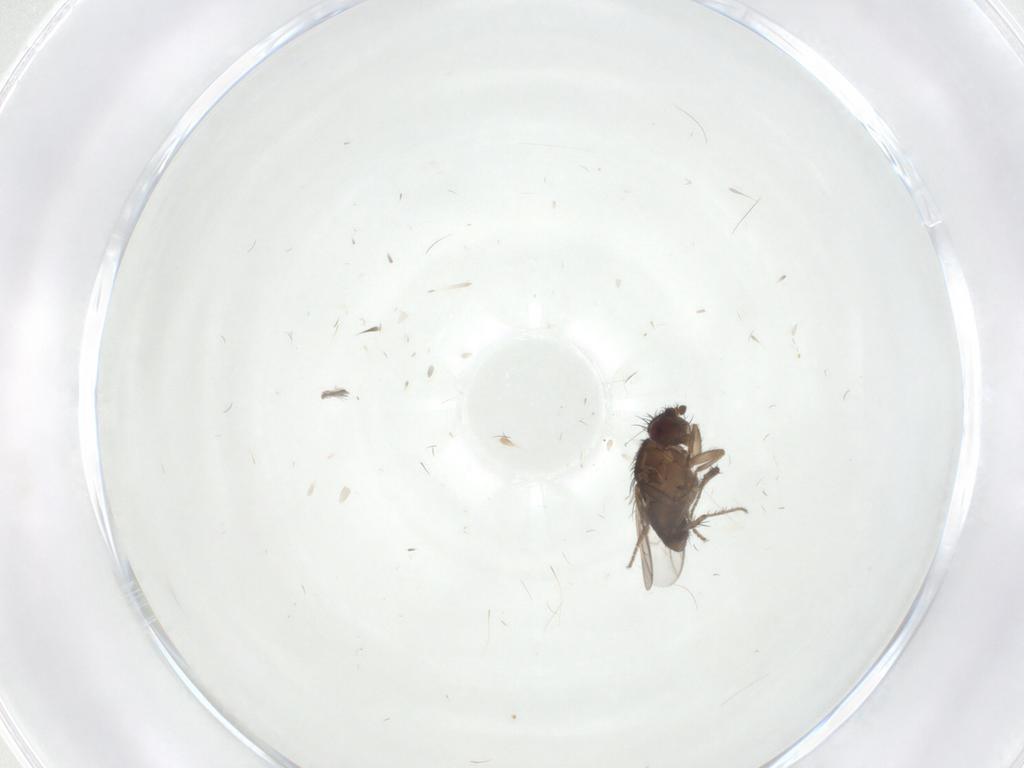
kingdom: Animalia
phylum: Arthropoda
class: Insecta
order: Diptera
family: Sphaeroceridae
